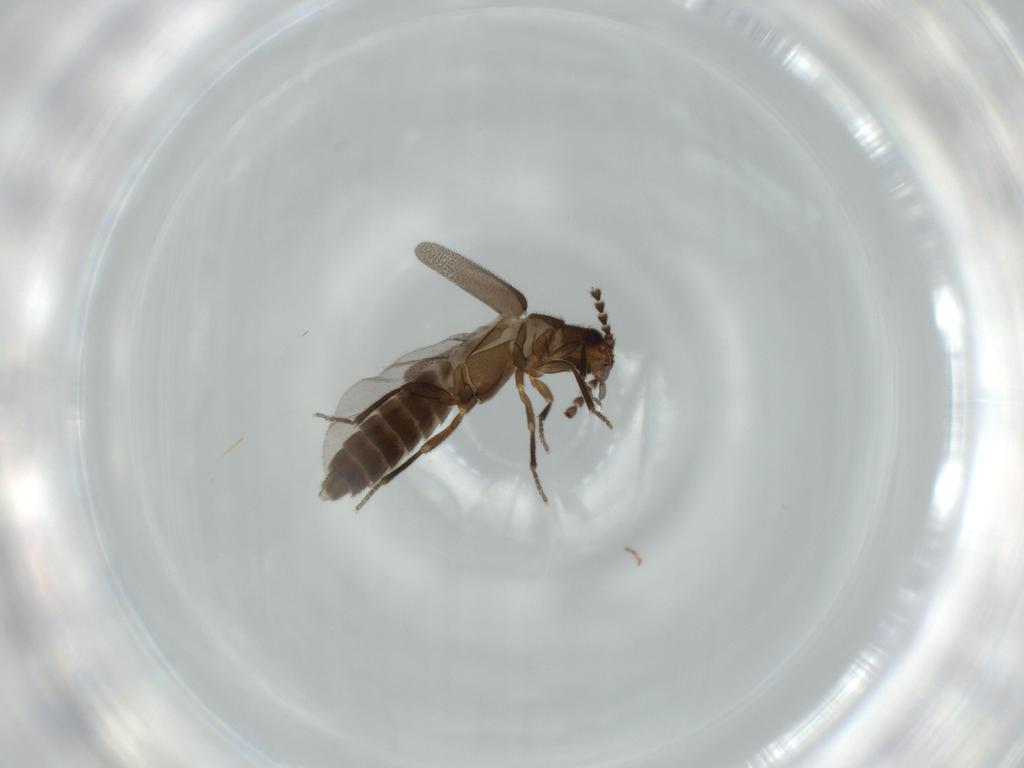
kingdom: Animalia
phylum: Arthropoda
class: Insecta
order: Coleoptera
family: Omethidae
